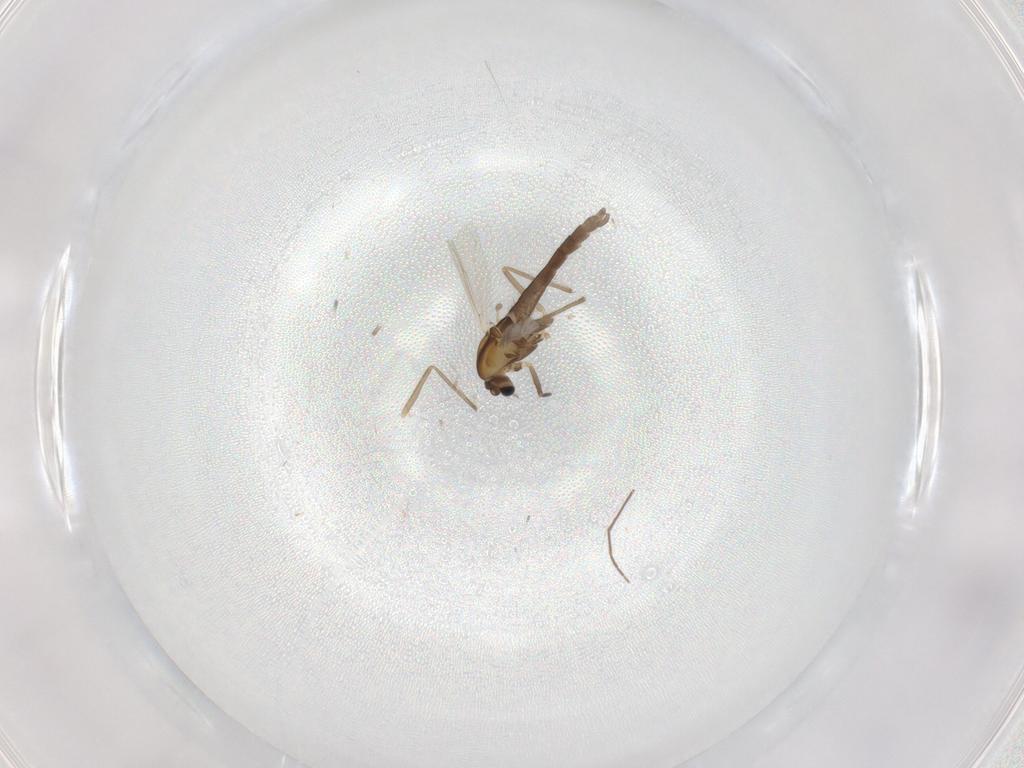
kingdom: Animalia
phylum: Arthropoda
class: Insecta
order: Diptera
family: Chironomidae
